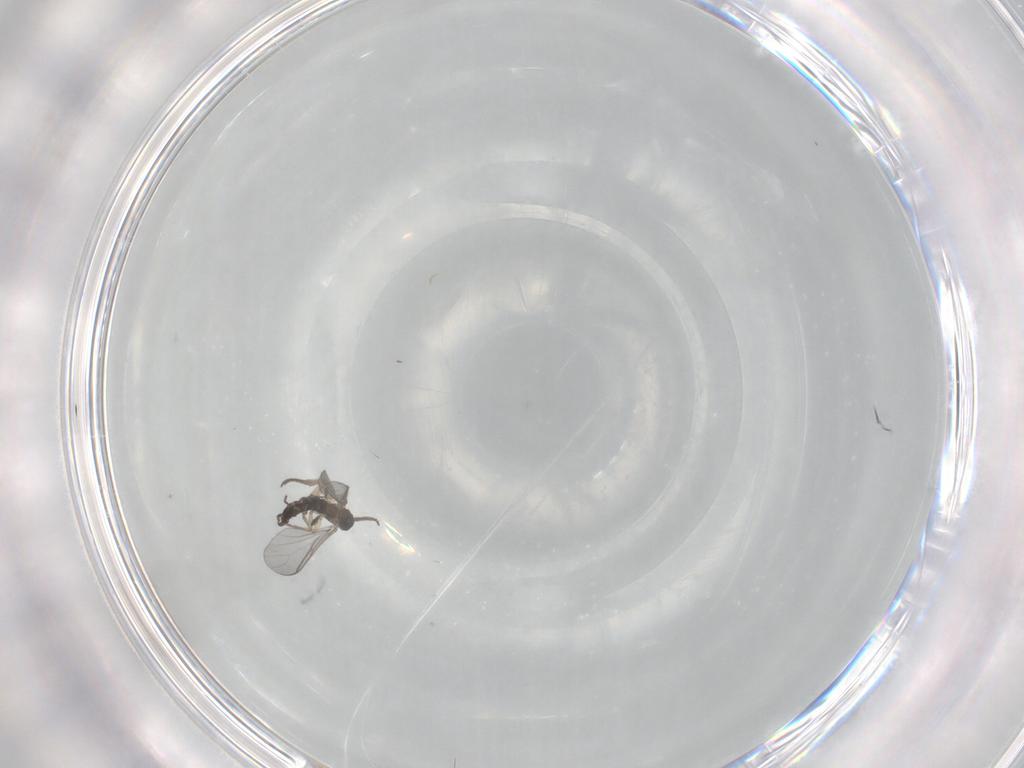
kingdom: Animalia
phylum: Arthropoda
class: Insecta
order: Diptera
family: Sciaridae
